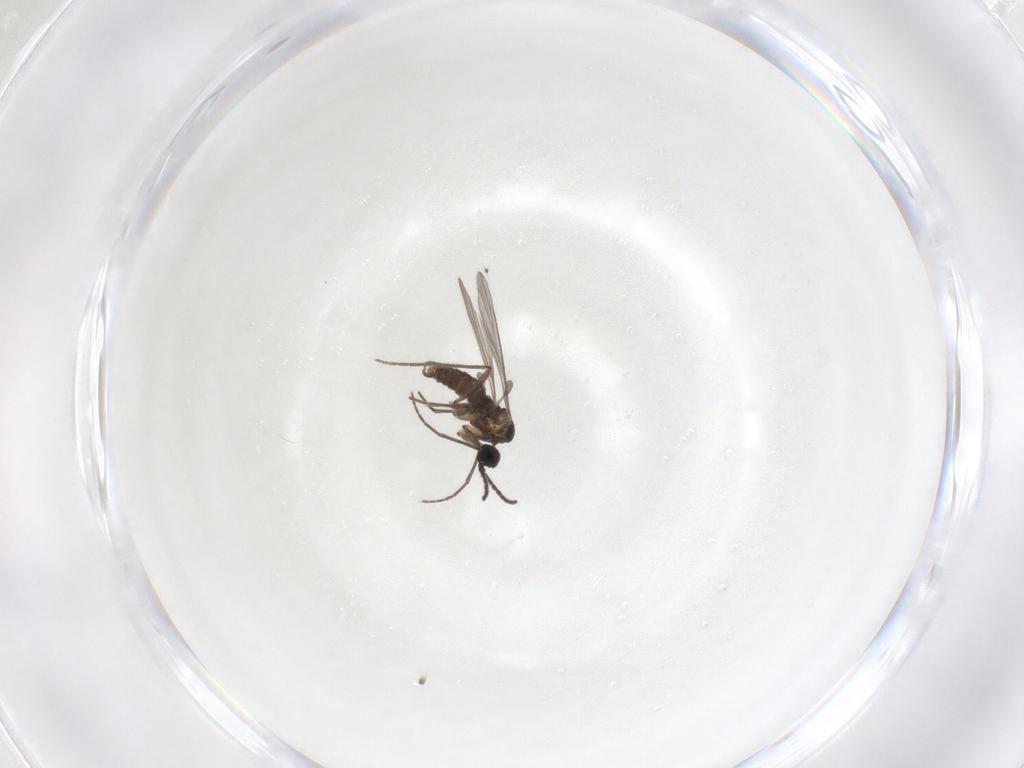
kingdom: Animalia
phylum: Arthropoda
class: Insecta
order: Diptera
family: Sciaridae
